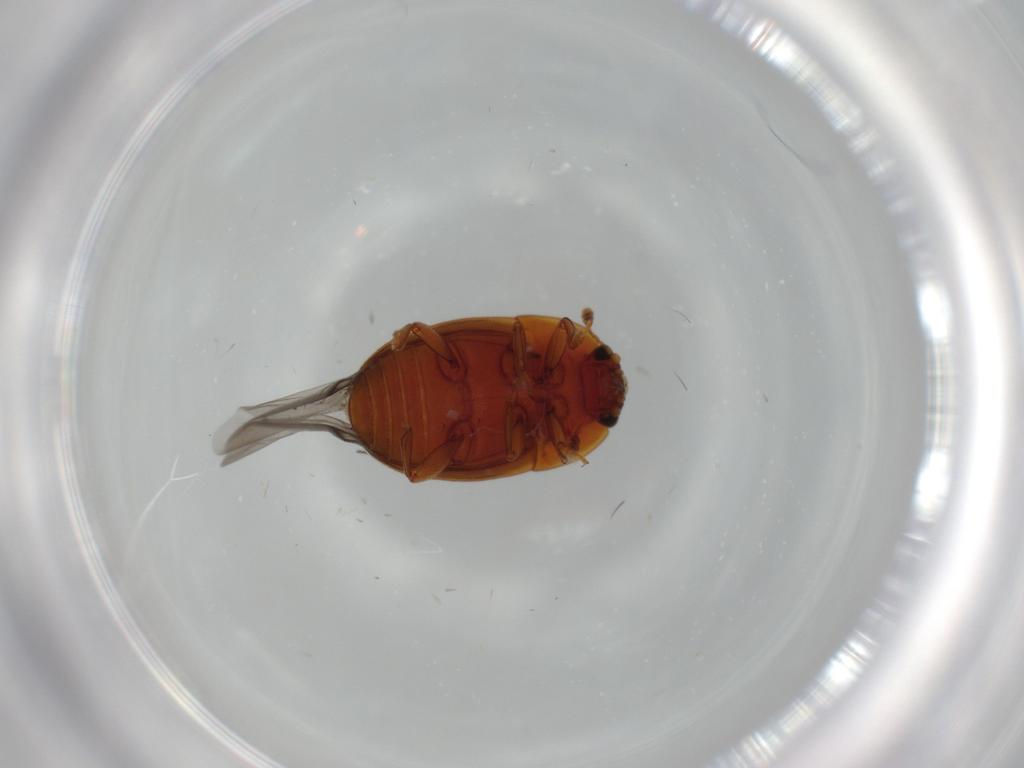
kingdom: Animalia
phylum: Arthropoda
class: Insecta
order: Coleoptera
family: Nitidulidae
